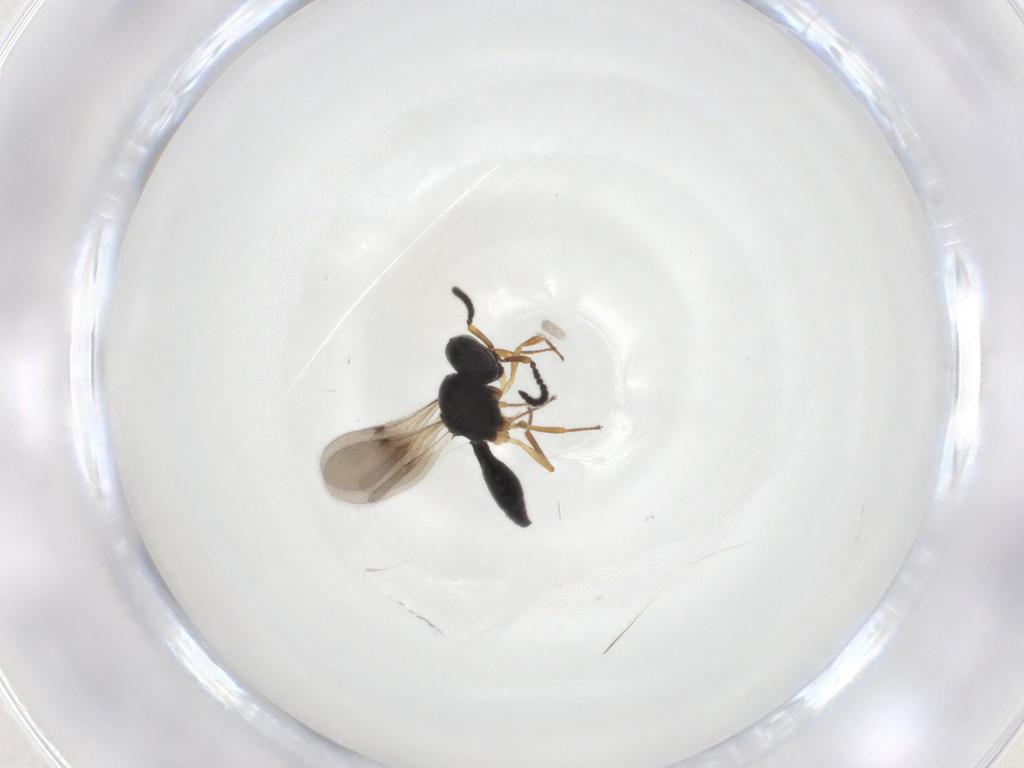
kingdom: Animalia
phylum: Arthropoda
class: Insecta
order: Hymenoptera
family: Scelionidae
